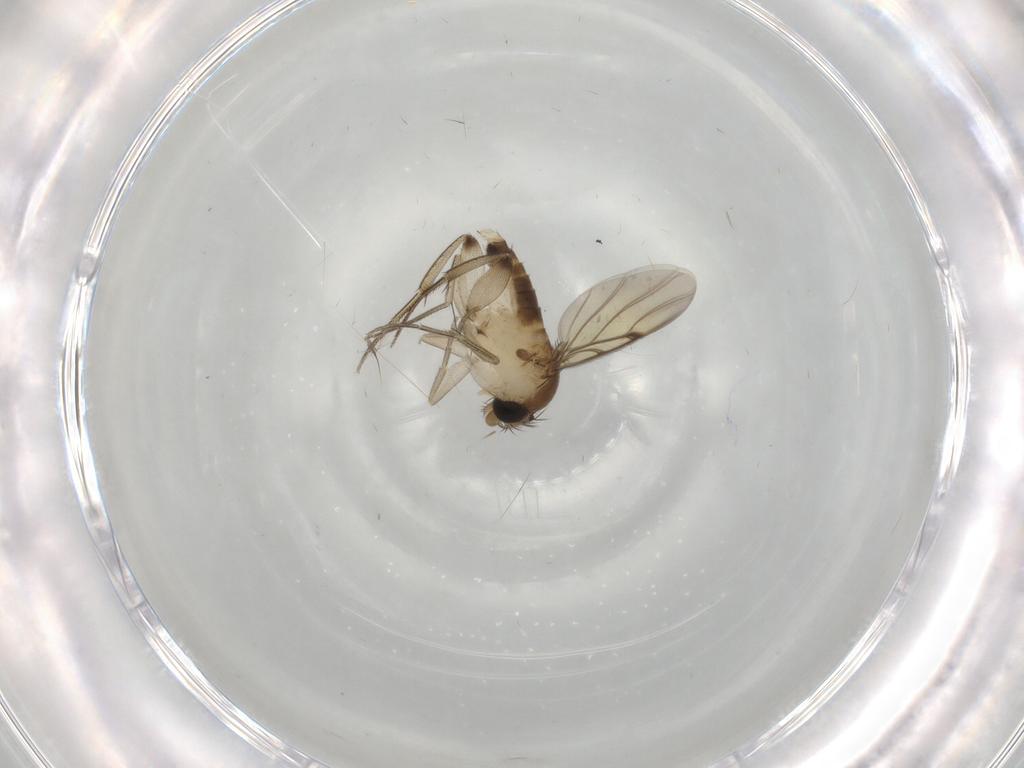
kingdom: Animalia
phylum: Arthropoda
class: Insecta
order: Diptera
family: Phoridae
